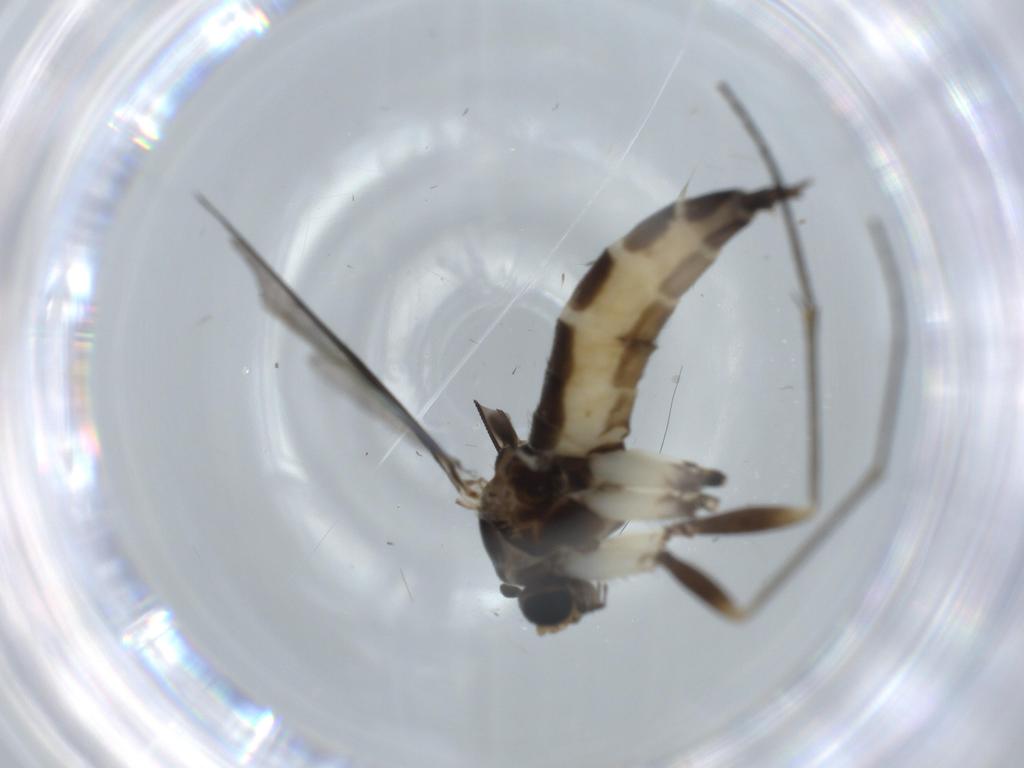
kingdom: Animalia
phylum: Arthropoda
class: Insecta
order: Diptera
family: Sciaridae
